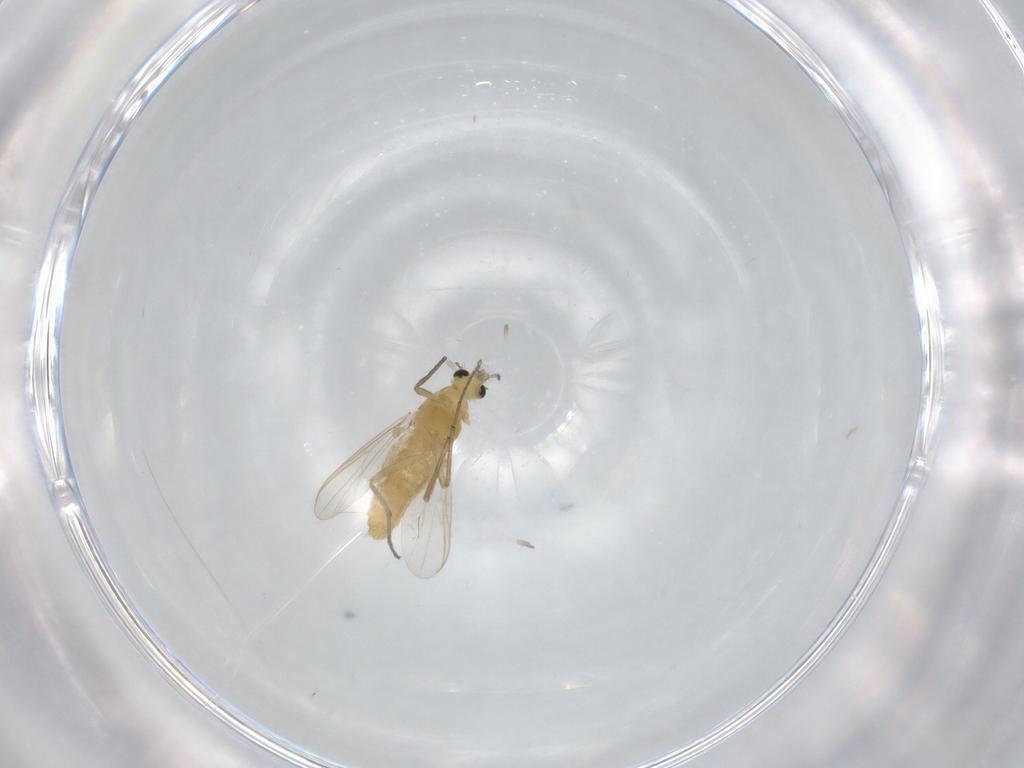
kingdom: Animalia
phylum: Arthropoda
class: Insecta
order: Diptera
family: Chironomidae
